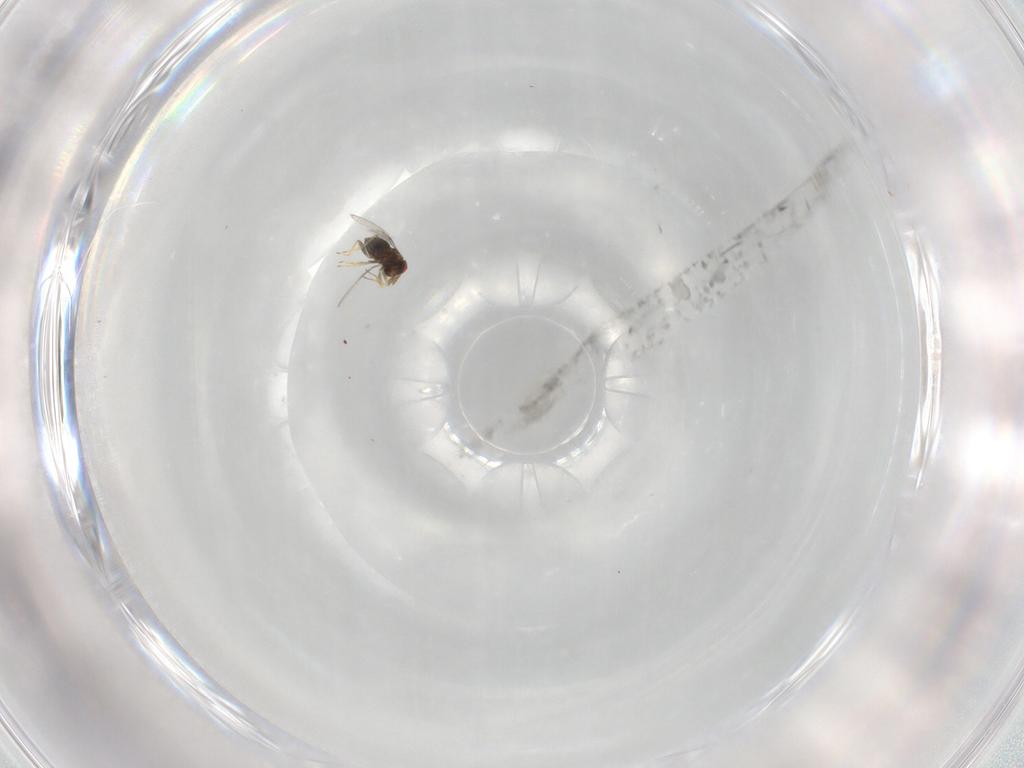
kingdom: Animalia
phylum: Arthropoda
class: Insecta
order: Hymenoptera
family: Trichogrammatidae
